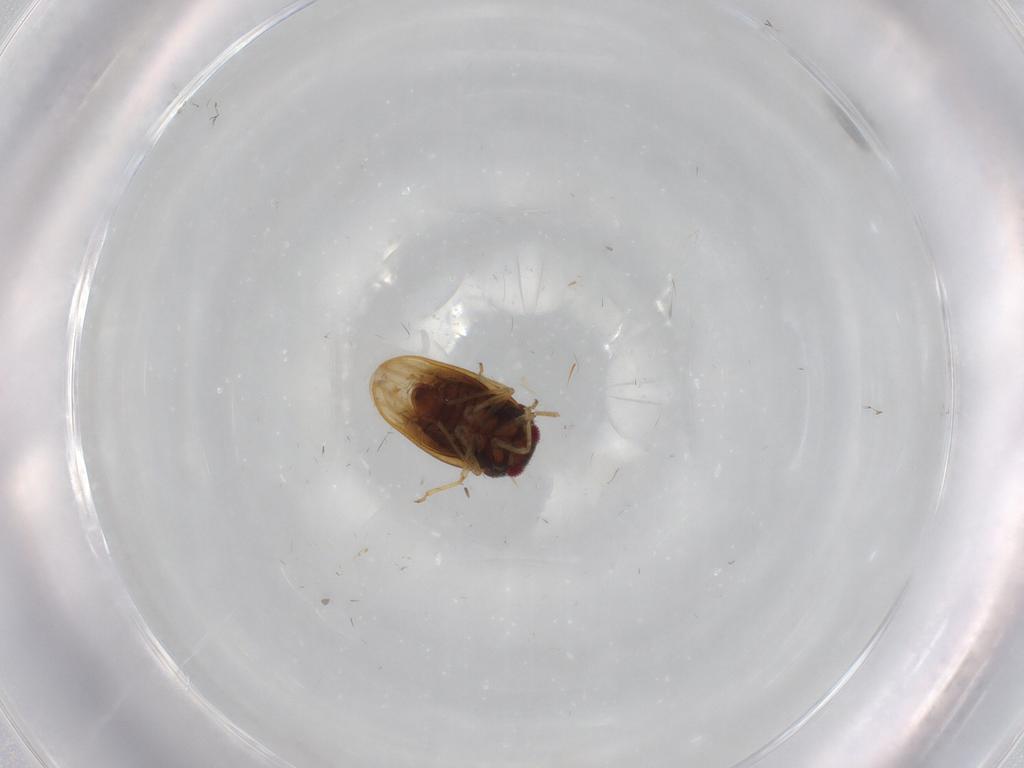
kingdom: Animalia
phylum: Arthropoda
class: Insecta
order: Hemiptera
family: Schizopteridae
